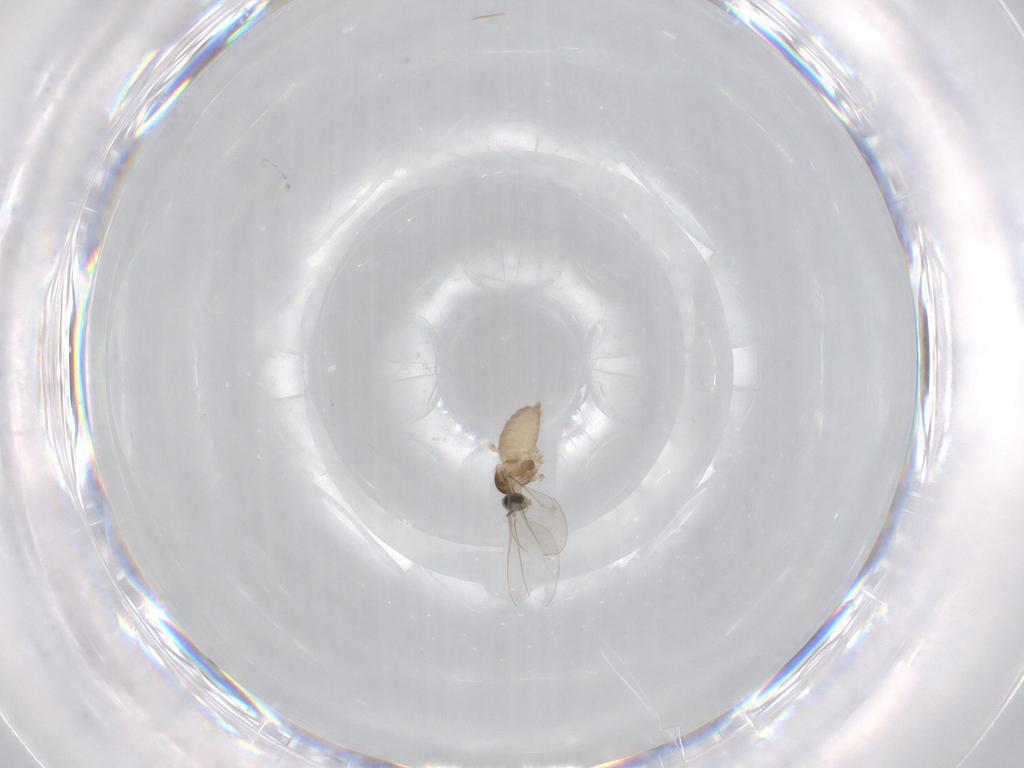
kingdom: Animalia
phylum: Arthropoda
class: Insecta
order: Diptera
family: Cecidomyiidae
